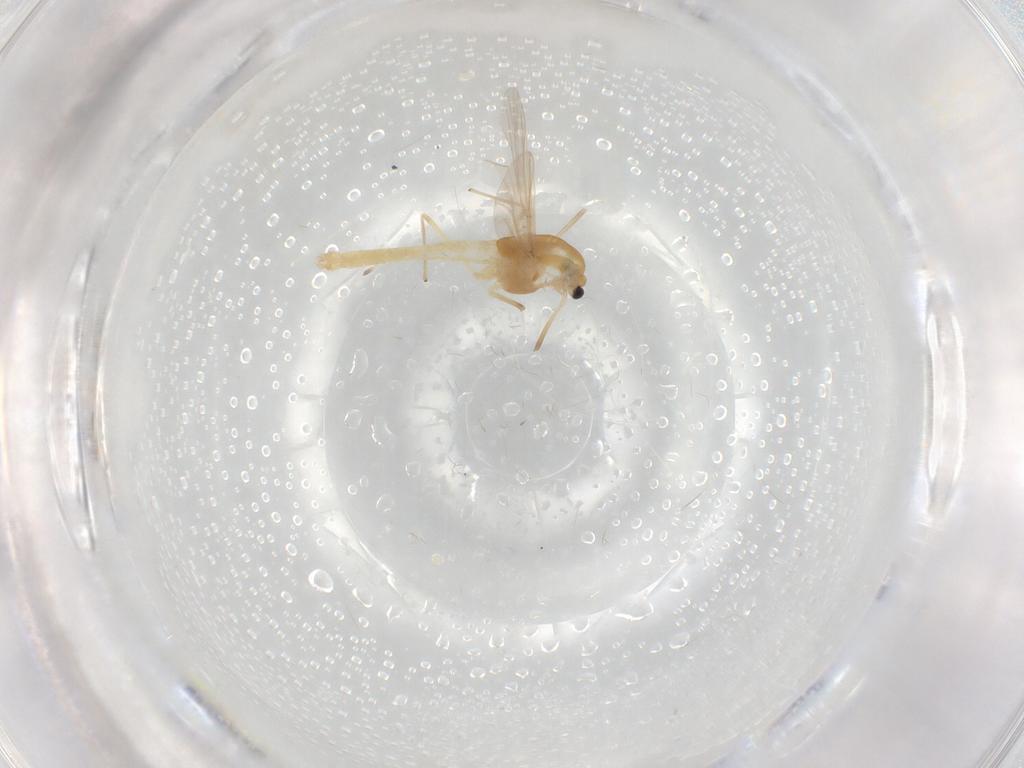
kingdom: Animalia
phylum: Arthropoda
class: Insecta
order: Diptera
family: Chironomidae
